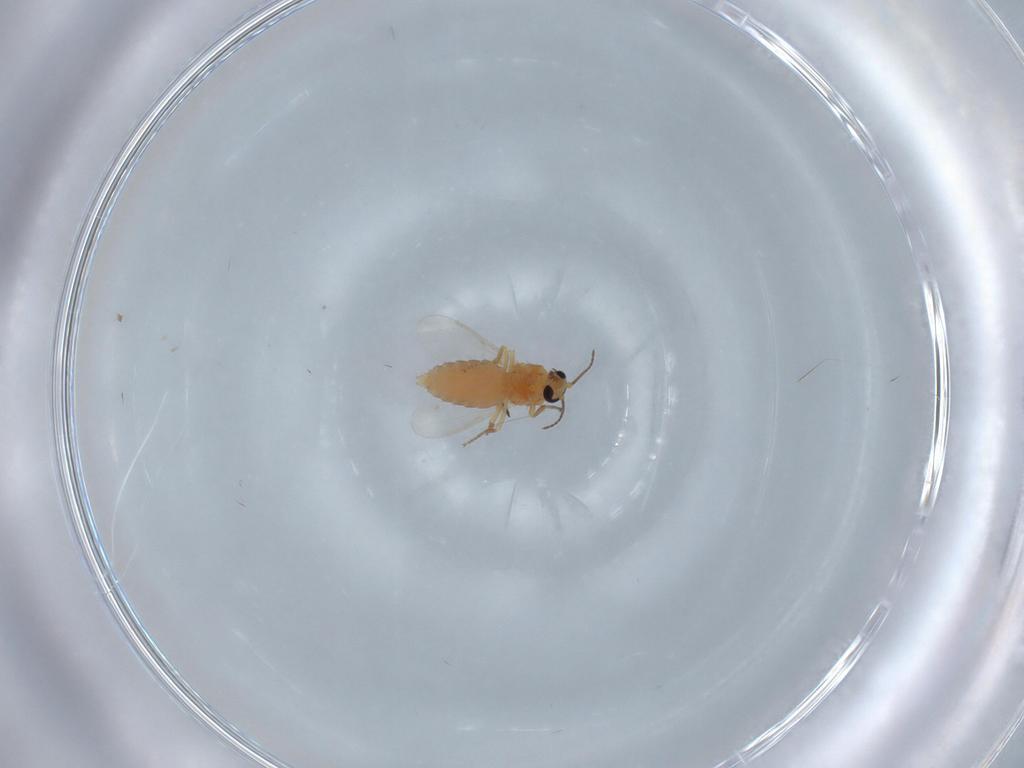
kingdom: Animalia
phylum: Arthropoda
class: Insecta
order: Diptera
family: Ceratopogonidae
